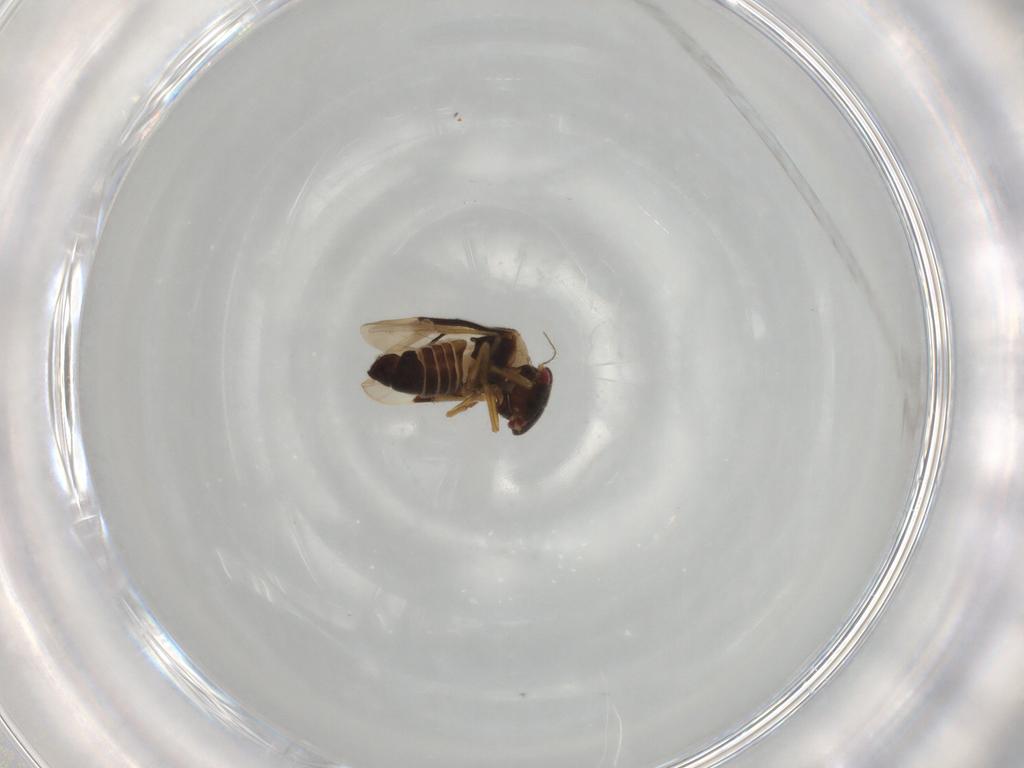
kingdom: Animalia
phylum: Arthropoda
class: Insecta
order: Hemiptera
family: Schizopteridae
